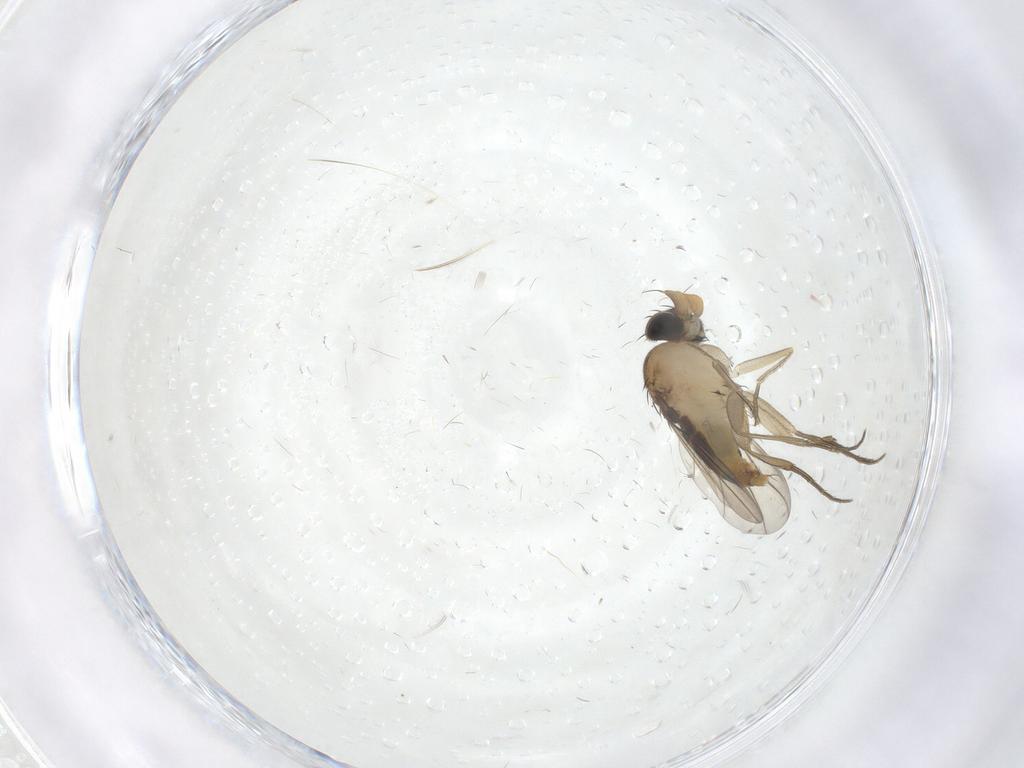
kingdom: Animalia
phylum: Arthropoda
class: Insecta
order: Diptera
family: Phoridae
